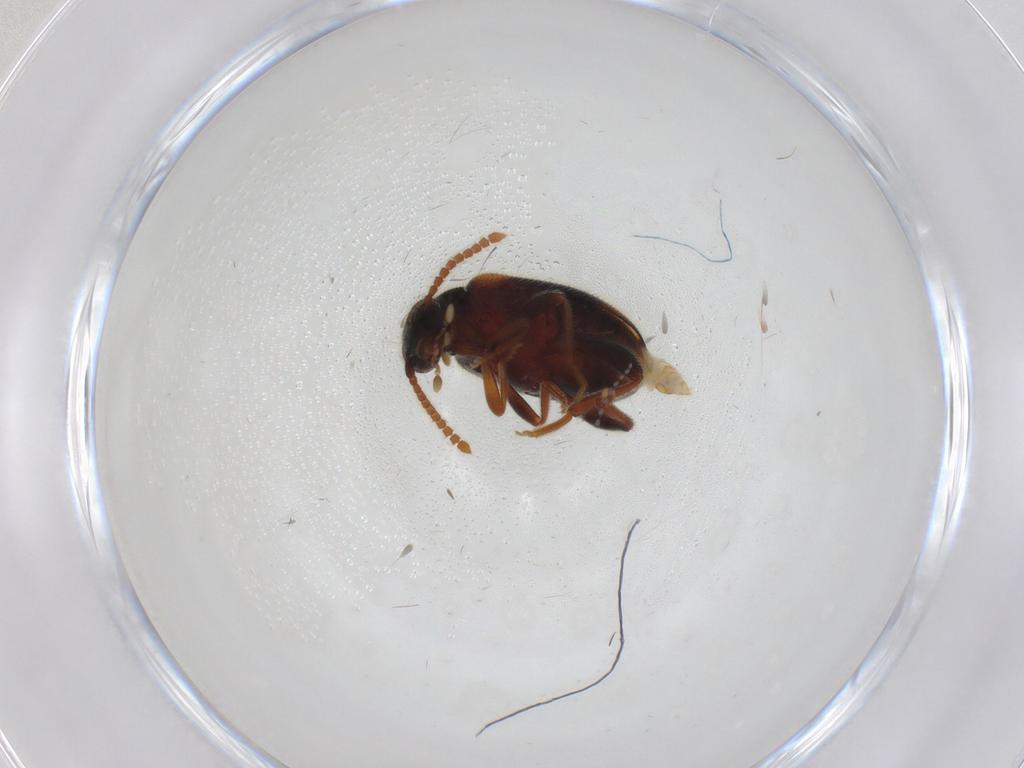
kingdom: Animalia
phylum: Arthropoda
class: Insecta
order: Coleoptera
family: Aderidae
